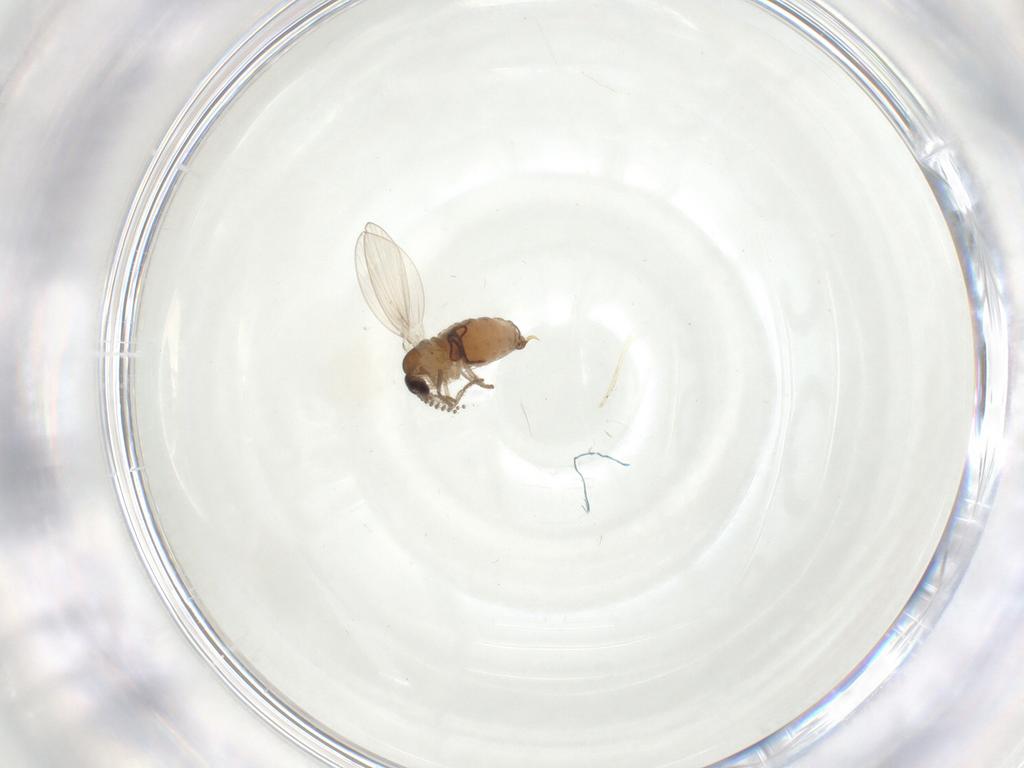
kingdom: Animalia
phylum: Arthropoda
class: Insecta
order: Diptera
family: Psychodidae
